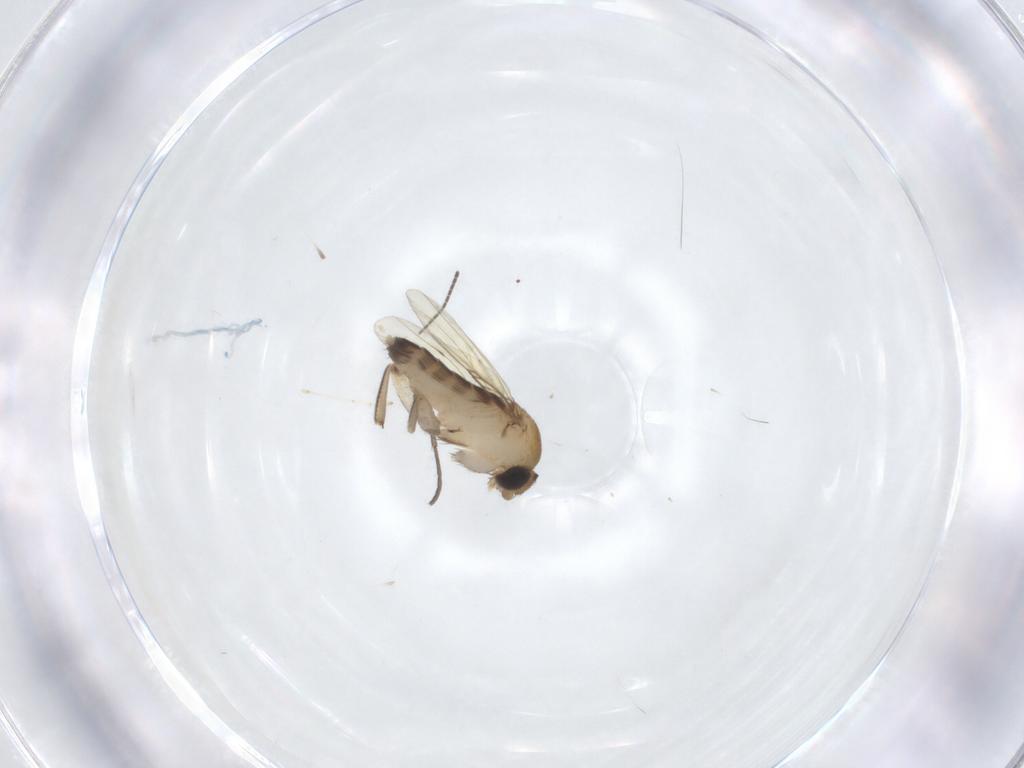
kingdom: Animalia
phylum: Arthropoda
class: Insecta
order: Diptera
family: Phoridae
